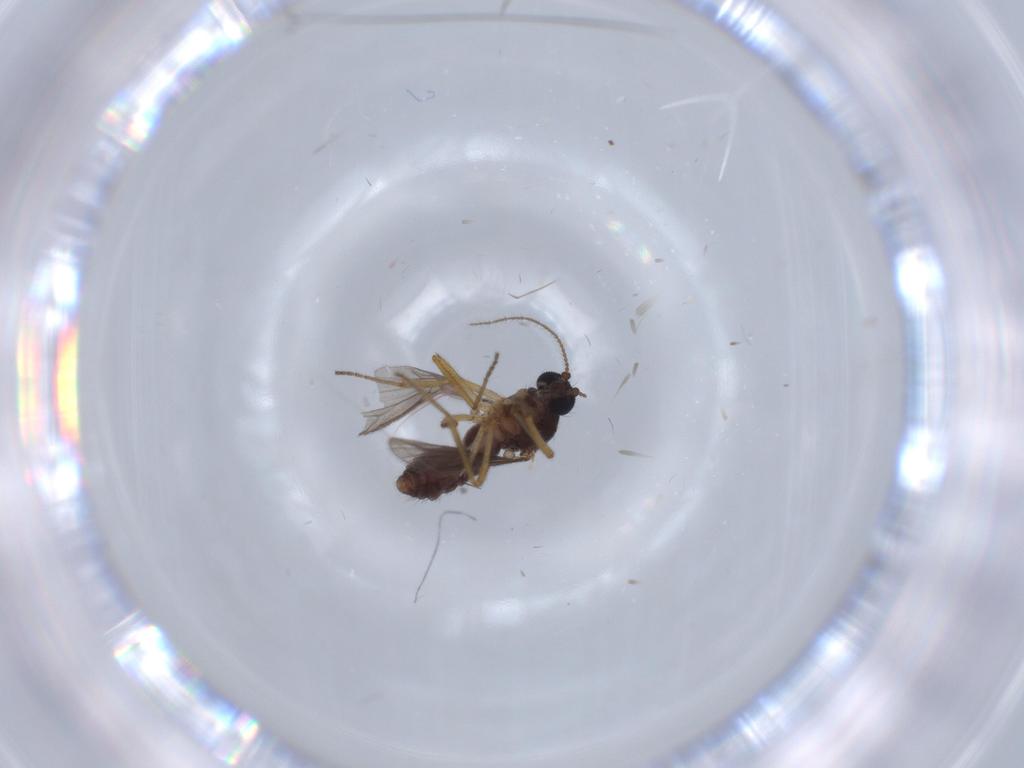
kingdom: Animalia
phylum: Arthropoda
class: Insecta
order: Diptera
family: Ceratopogonidae
